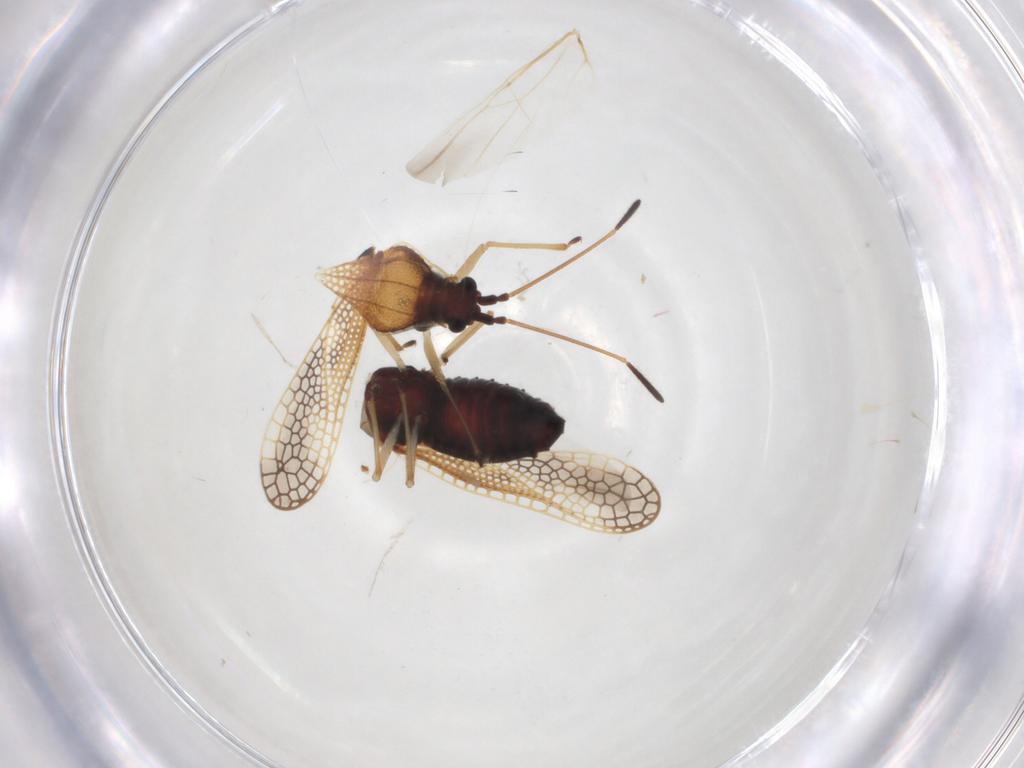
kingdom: Animalia
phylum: Arthropoda
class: Insecta
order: Hemiptera
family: Tingidae
